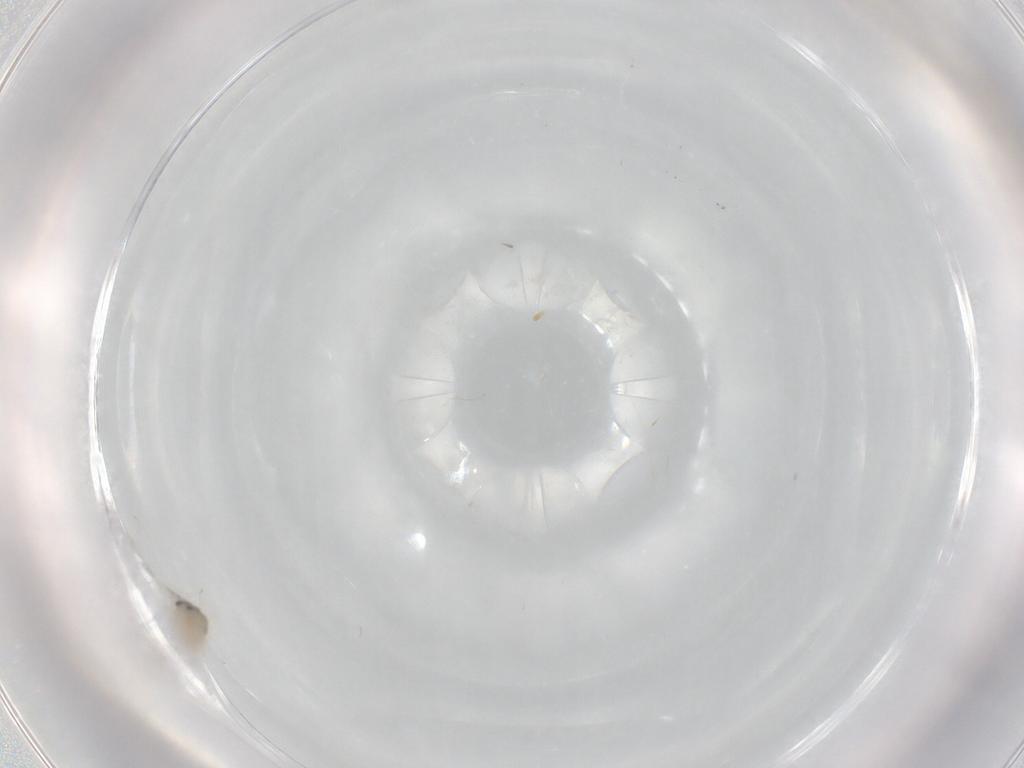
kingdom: Animalia
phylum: Arthropoda
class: Insecta
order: Diptera
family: Cecidomyiidae
